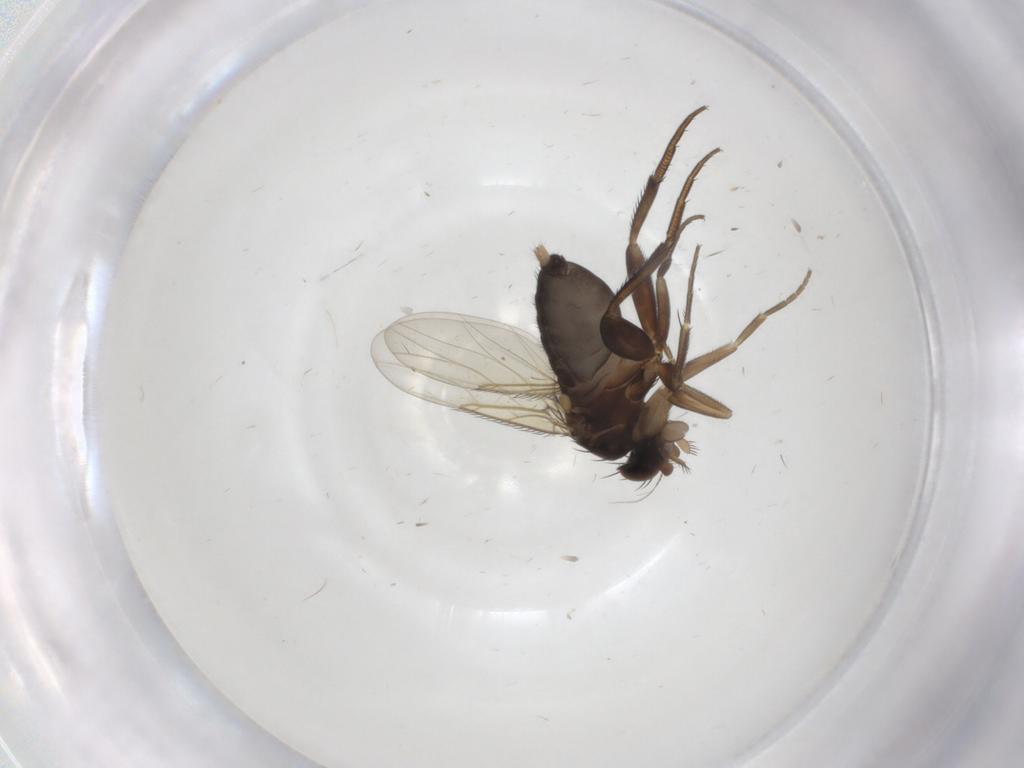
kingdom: Animalia
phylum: Arthropoda
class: Insecta
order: Diptera
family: Phoridae
